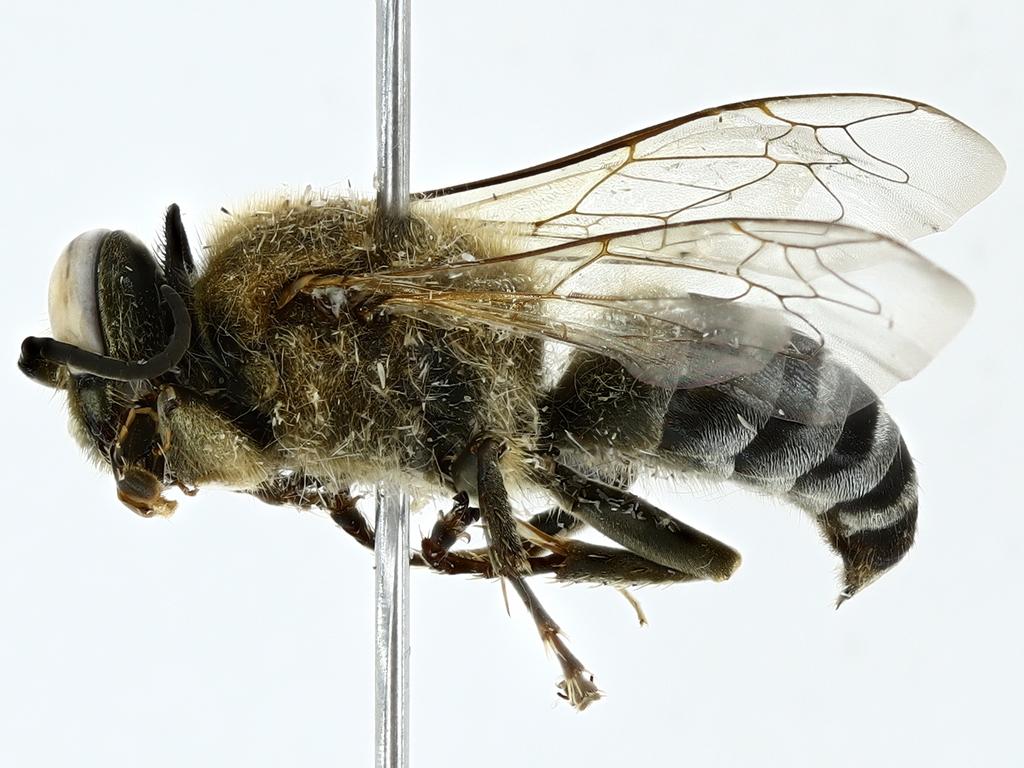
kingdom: Animalia
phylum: Arthropoda
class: Insecta
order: Hymenoptera
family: Crabronidae
